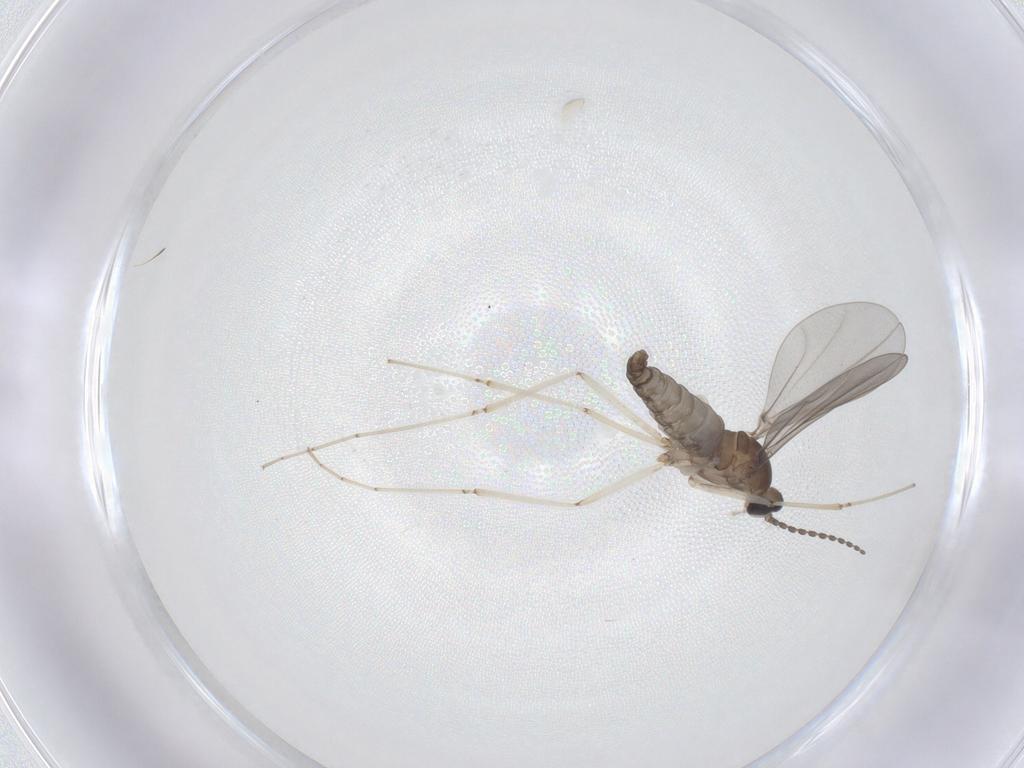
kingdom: Animalia
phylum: Arthropoda
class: Insecta
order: Diptera
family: Cecidomyiidae
